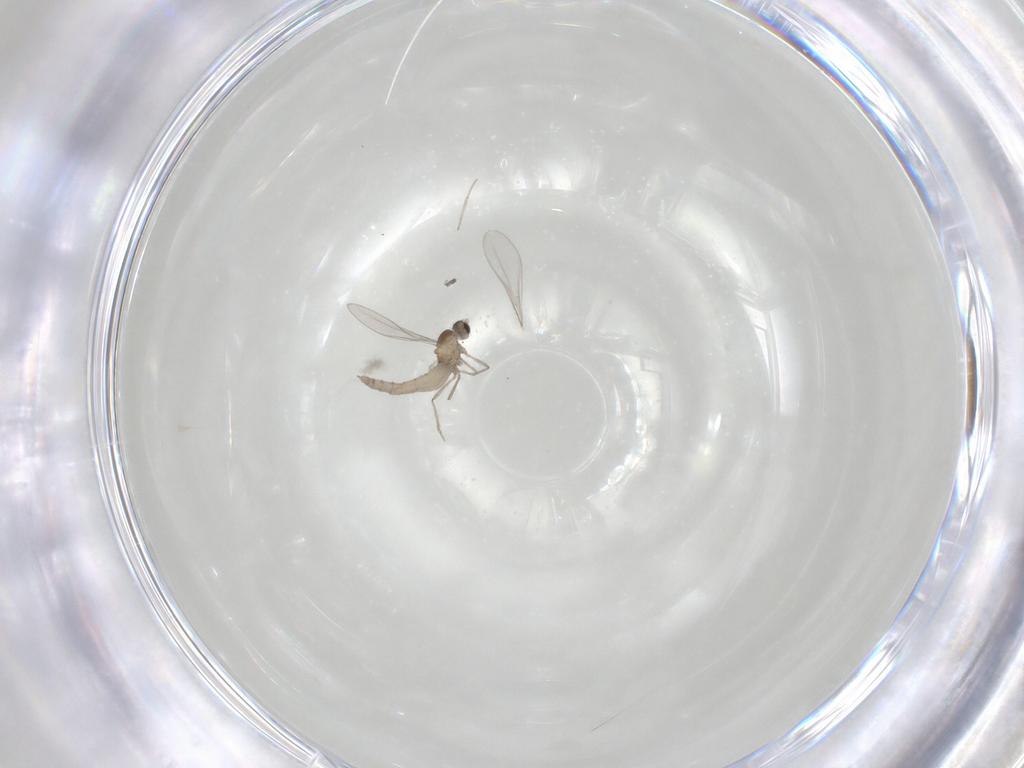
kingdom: Animalia
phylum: Arthropoda
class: Insecta
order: Diptera
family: Cecidomyiidae
